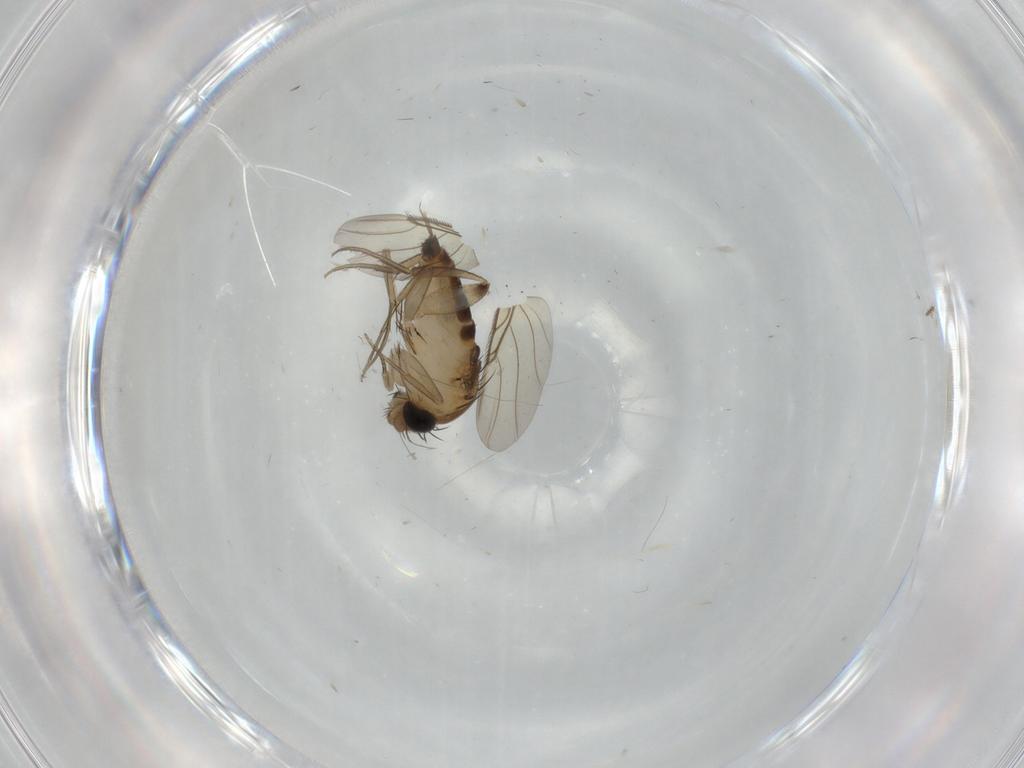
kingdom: Animalia
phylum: Arthropoda
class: Insecta
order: Diptera
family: Phoridae
